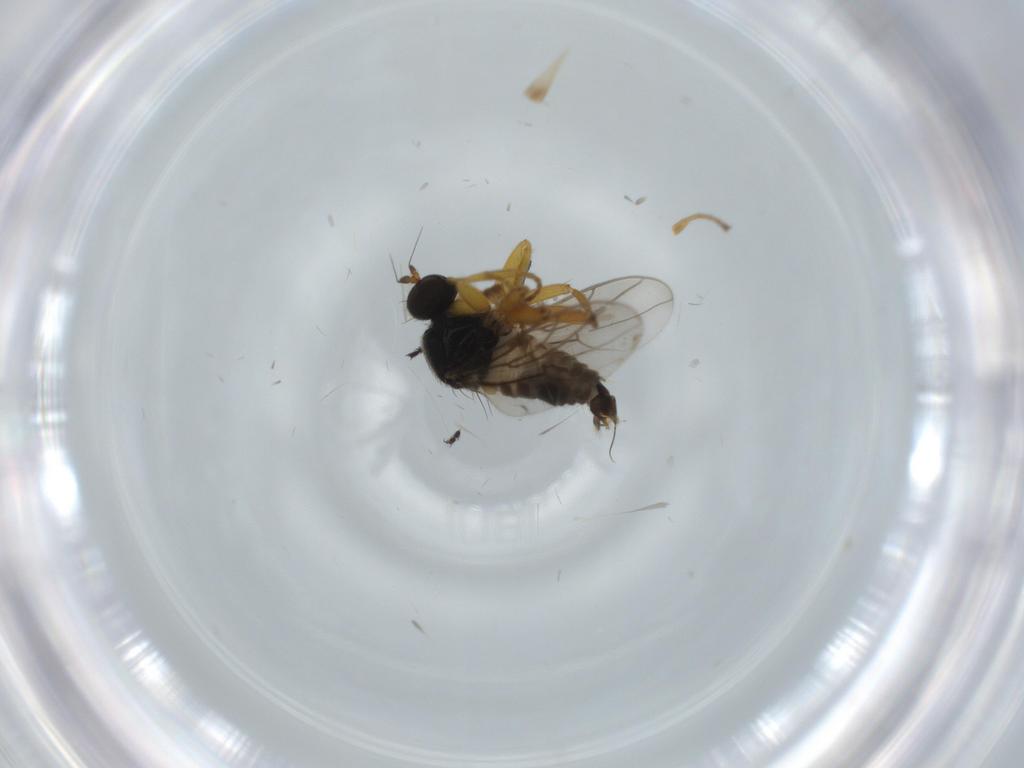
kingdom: Animalia
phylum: Arthropoda
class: Insecta
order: Diptera
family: Hybotidae
